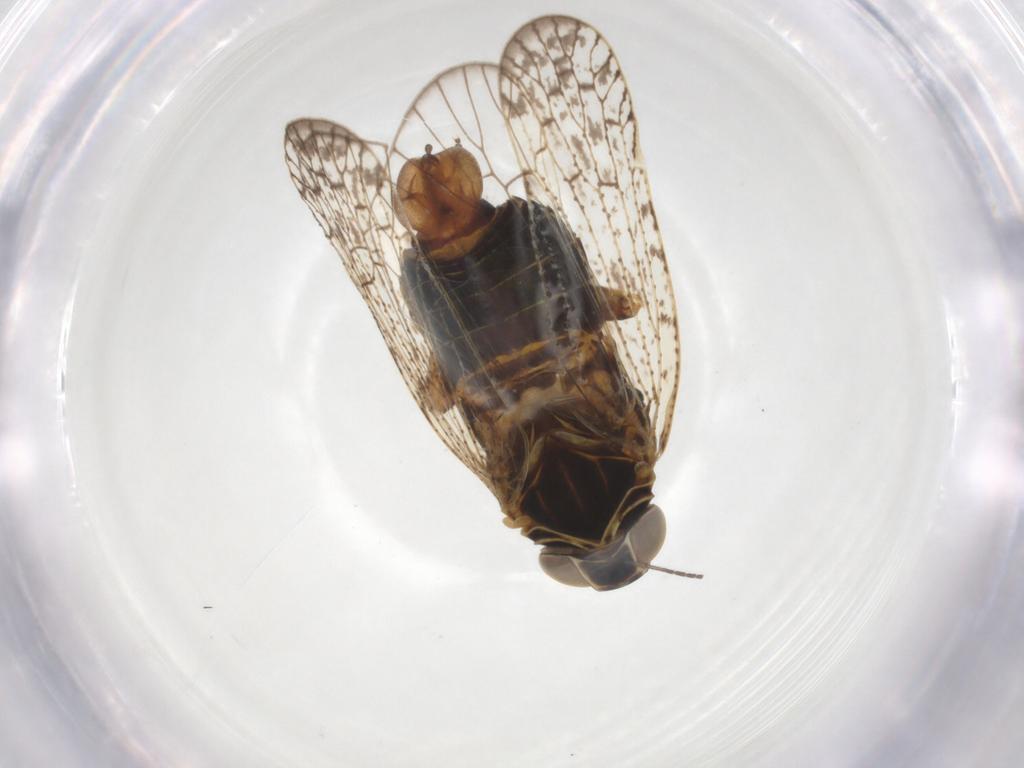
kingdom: Animalia
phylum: Arthropoda
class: Insecta
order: Hemiptera
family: Cixiidae
